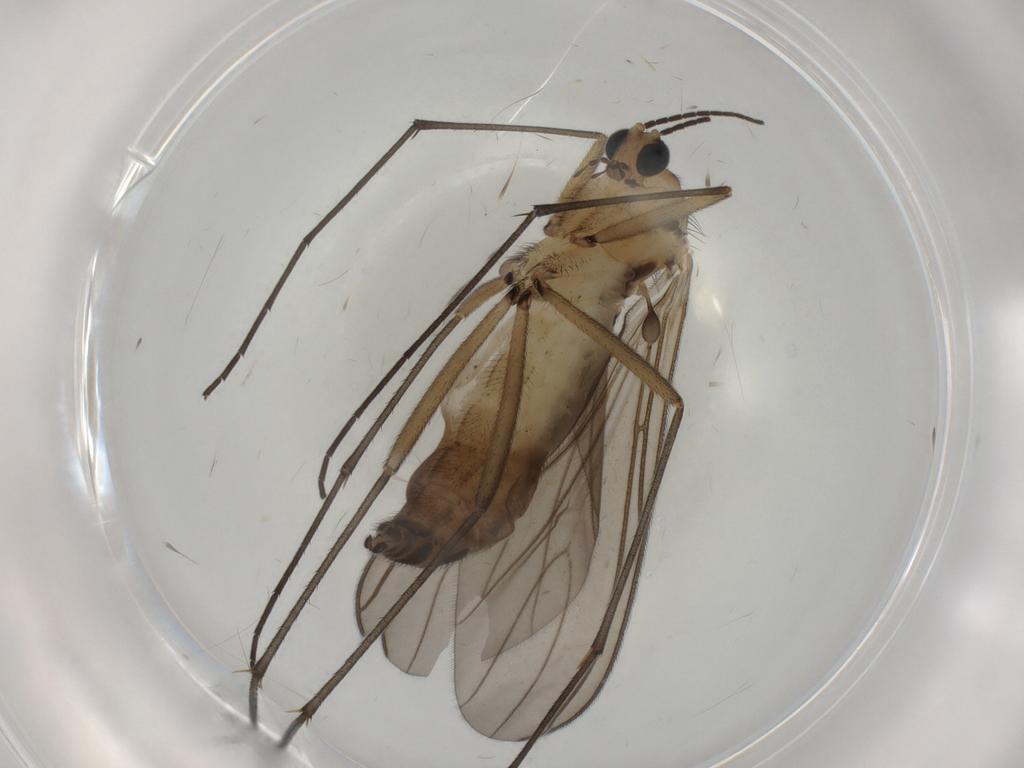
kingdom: Animalia
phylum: Arthropoda
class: Insecta
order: Diptera
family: Sciaridae
